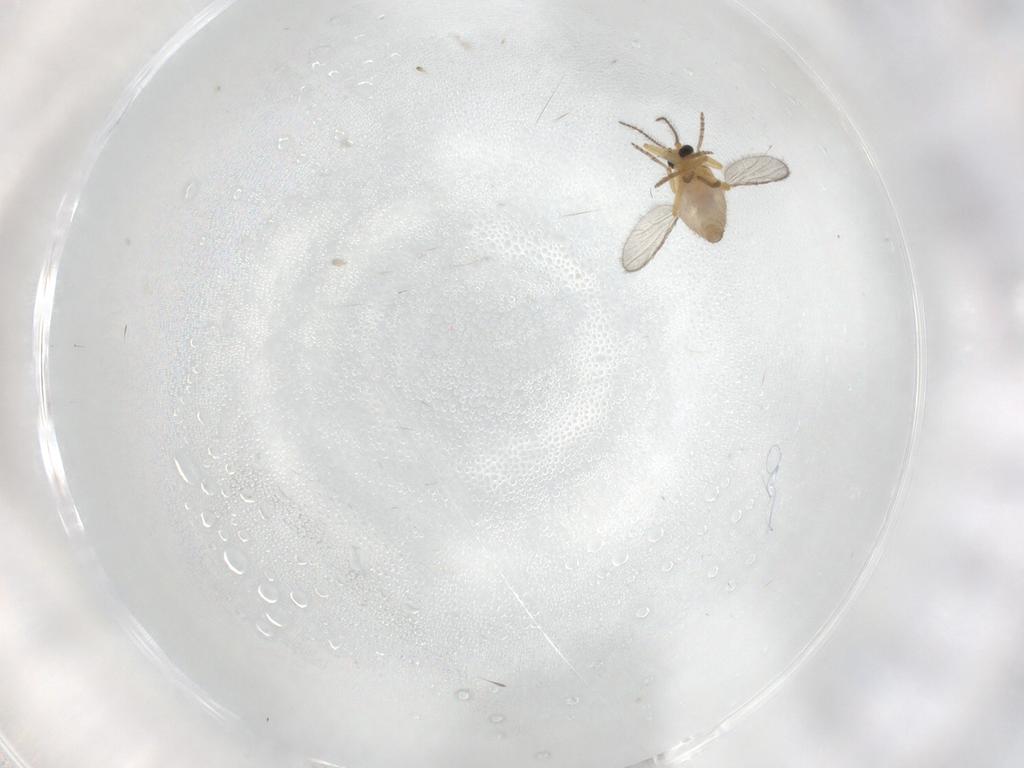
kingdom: Animalia
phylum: Arthropoda
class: Insecta
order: Diptera
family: Ceratopogonidae
